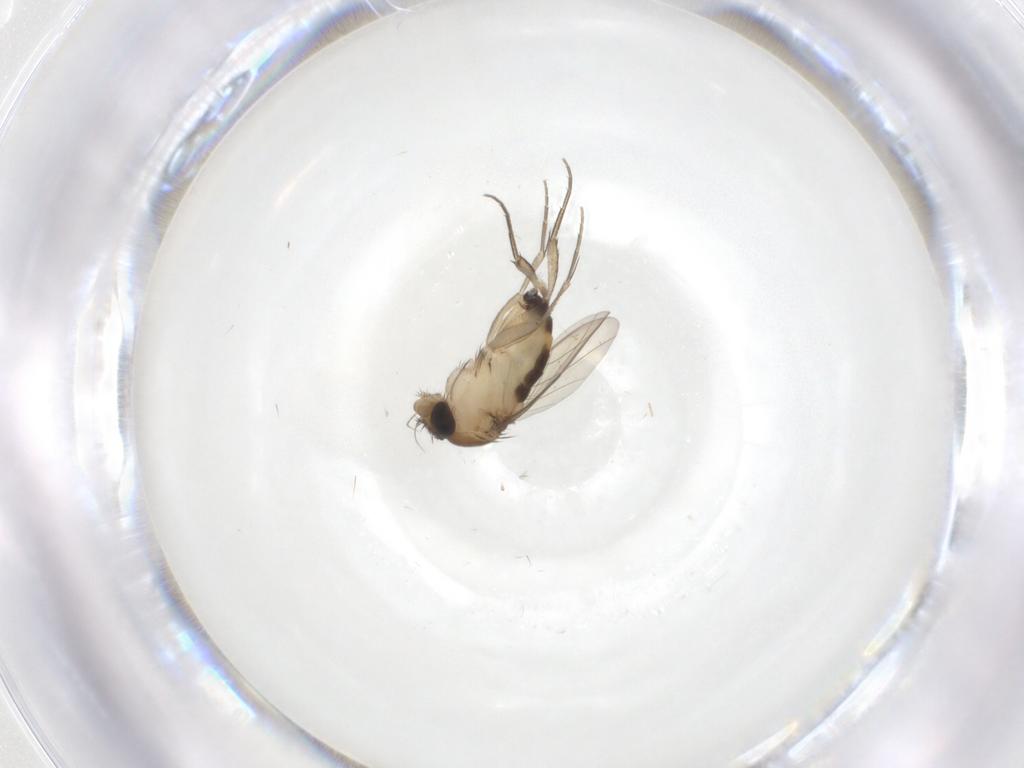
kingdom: Animalia
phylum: Arthropoda
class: Insecta
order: Diptera
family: Phoridae
